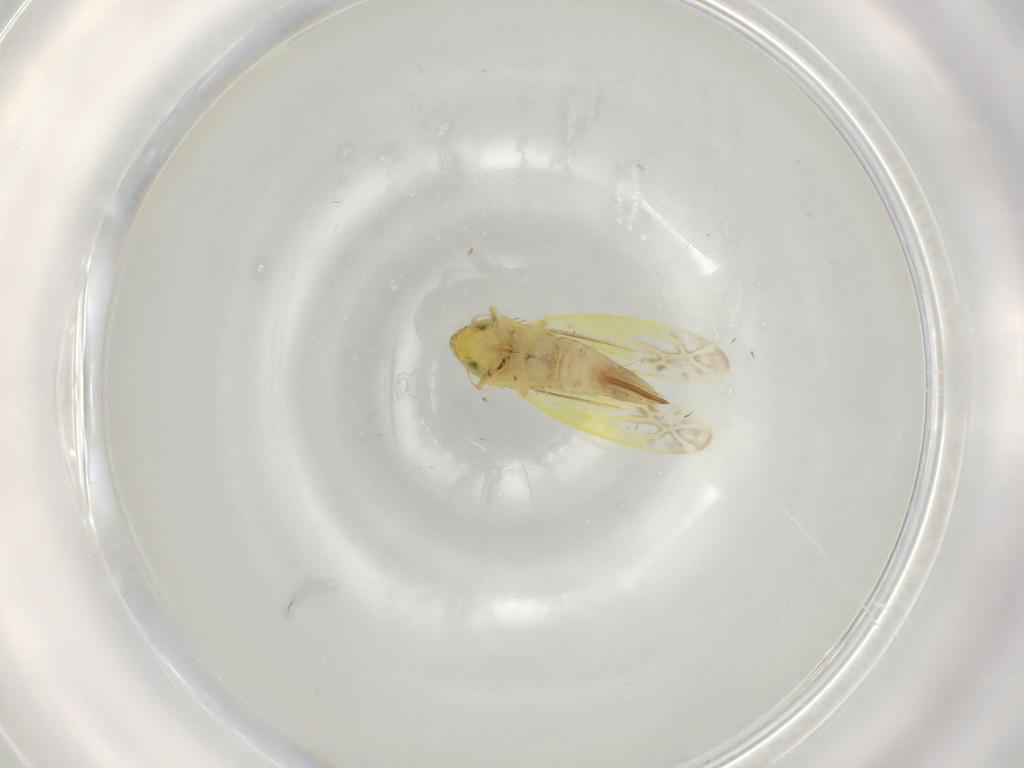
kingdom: Animalia
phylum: Arthropoda
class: Insecta
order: Hemiptera
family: Cicadellidae
